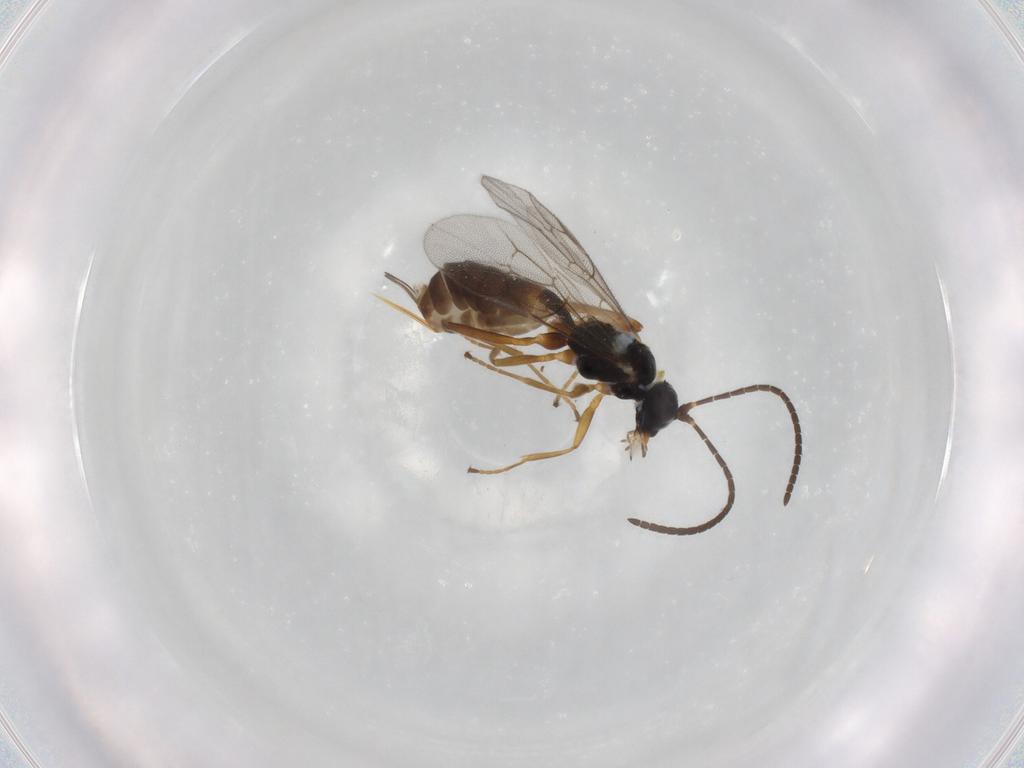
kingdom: Animalia
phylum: Arthropoda
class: Insecta
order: Hymenoptera
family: Ichneumonidae
